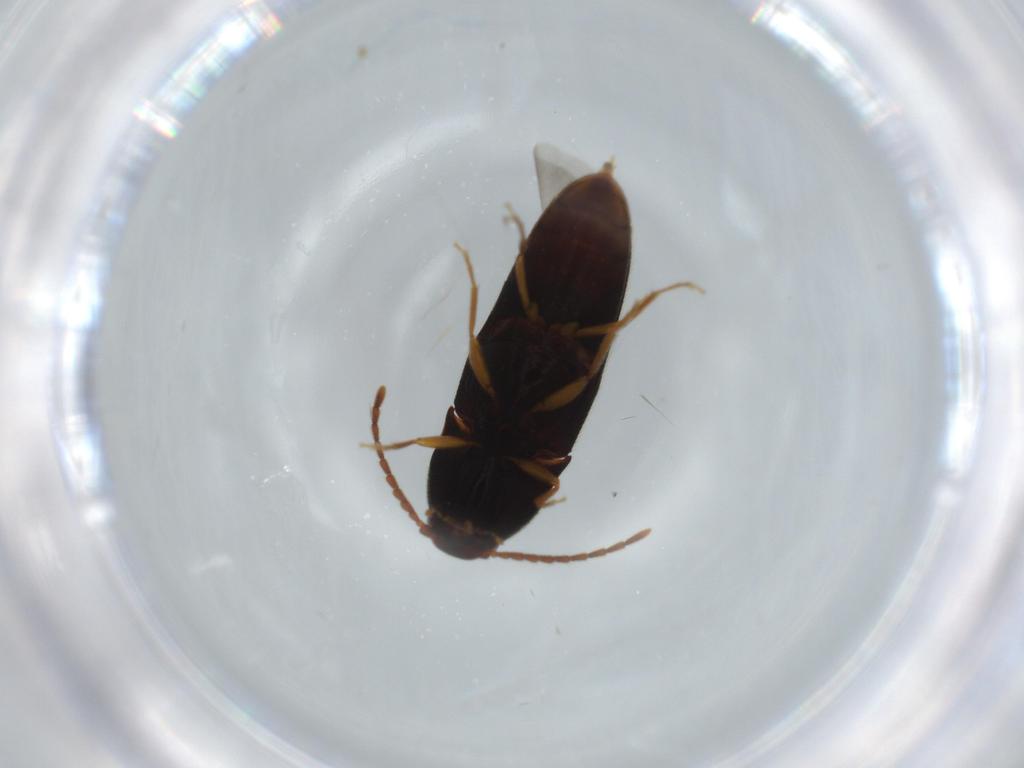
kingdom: Animalia
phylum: Arthropoda
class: Insecta
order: Coleoptera
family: Elateridae
